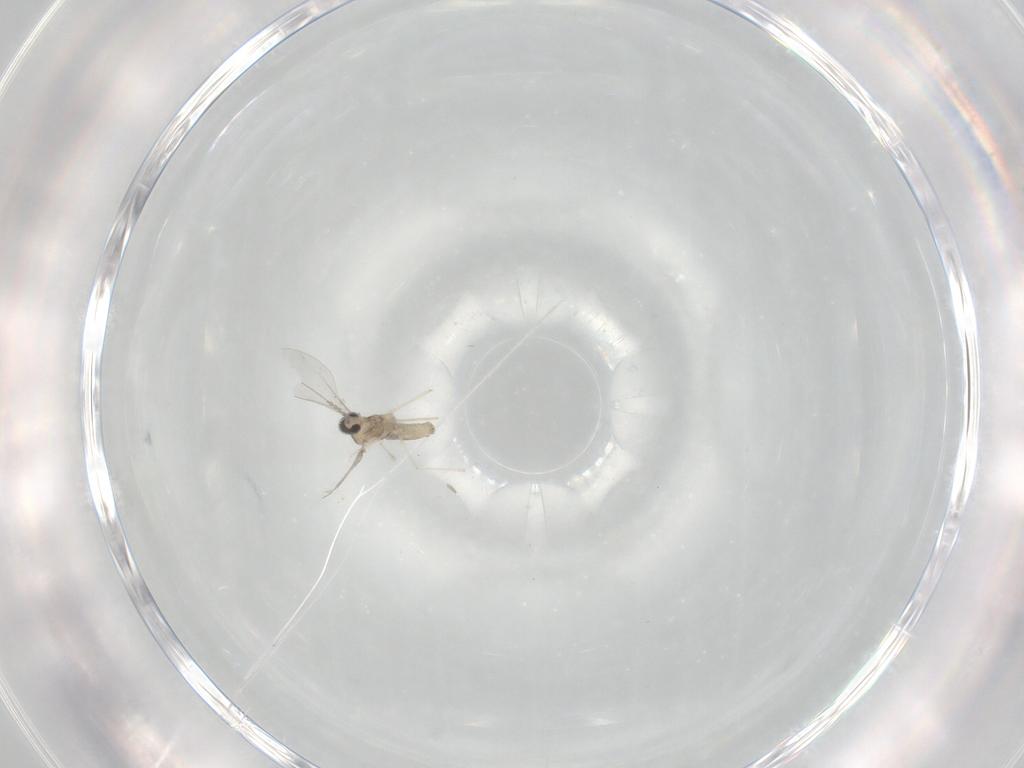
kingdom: Animalia
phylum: Arthropoda
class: Insecta
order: Diptera
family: Cecidomyiidae
